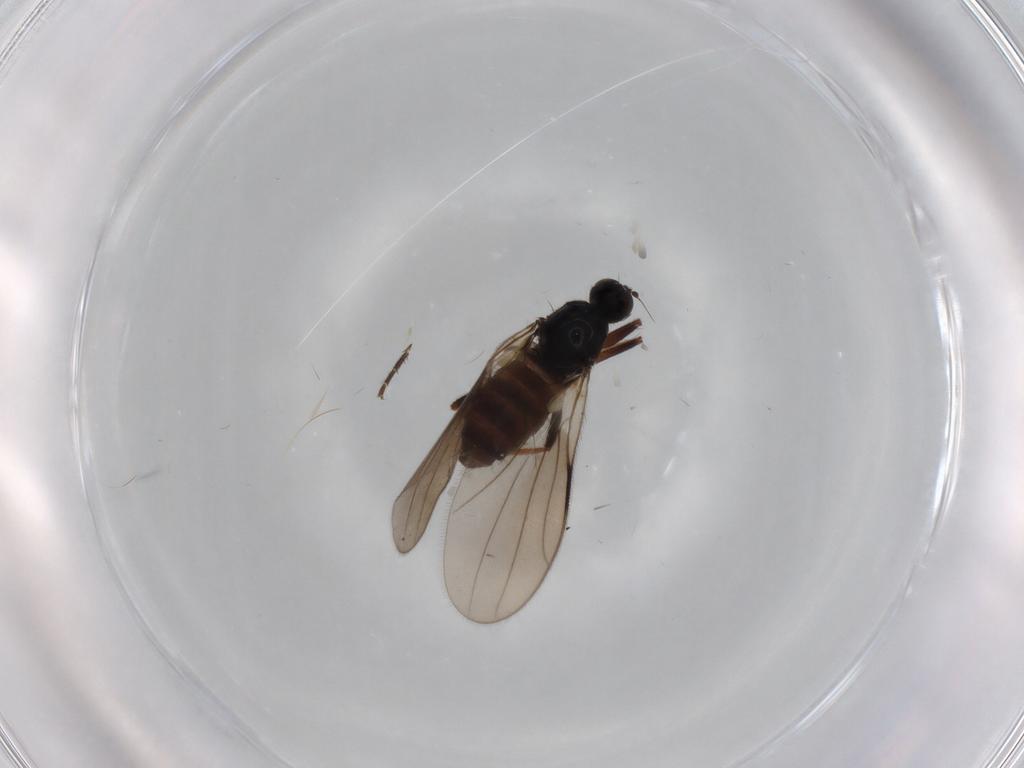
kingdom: Animalia
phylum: Arthropoda
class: Insecta
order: Diptera
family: Hybotidae
